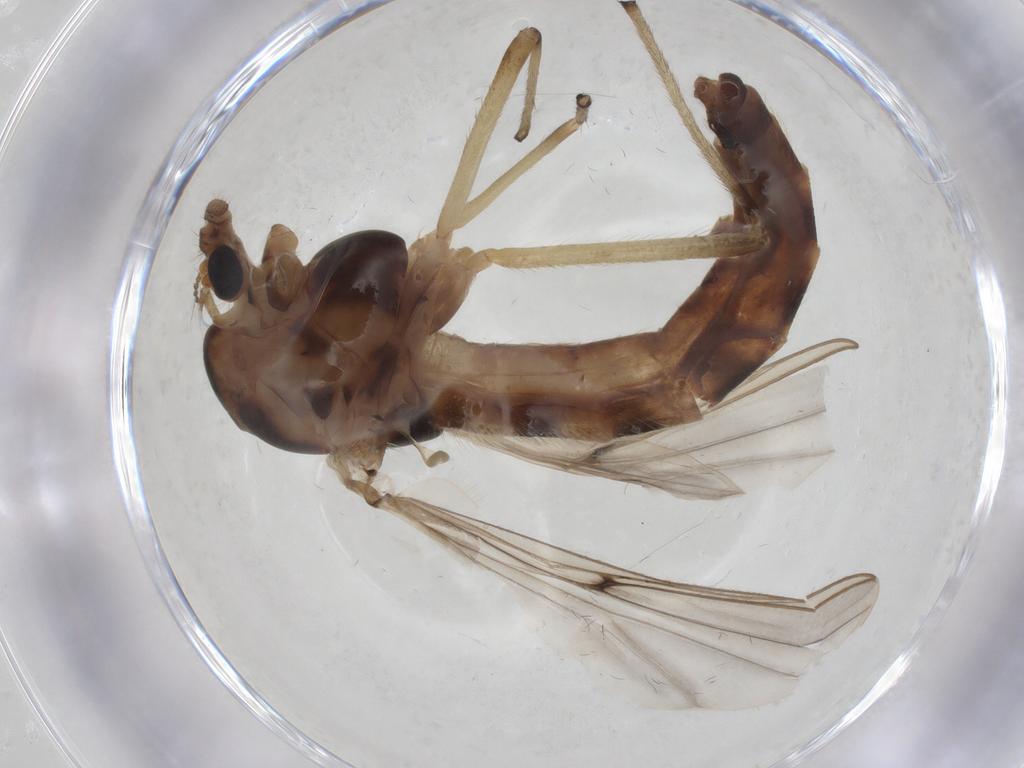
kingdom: Animalia
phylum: Arthropoda
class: Insecta
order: Diptera
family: Chironomidae
